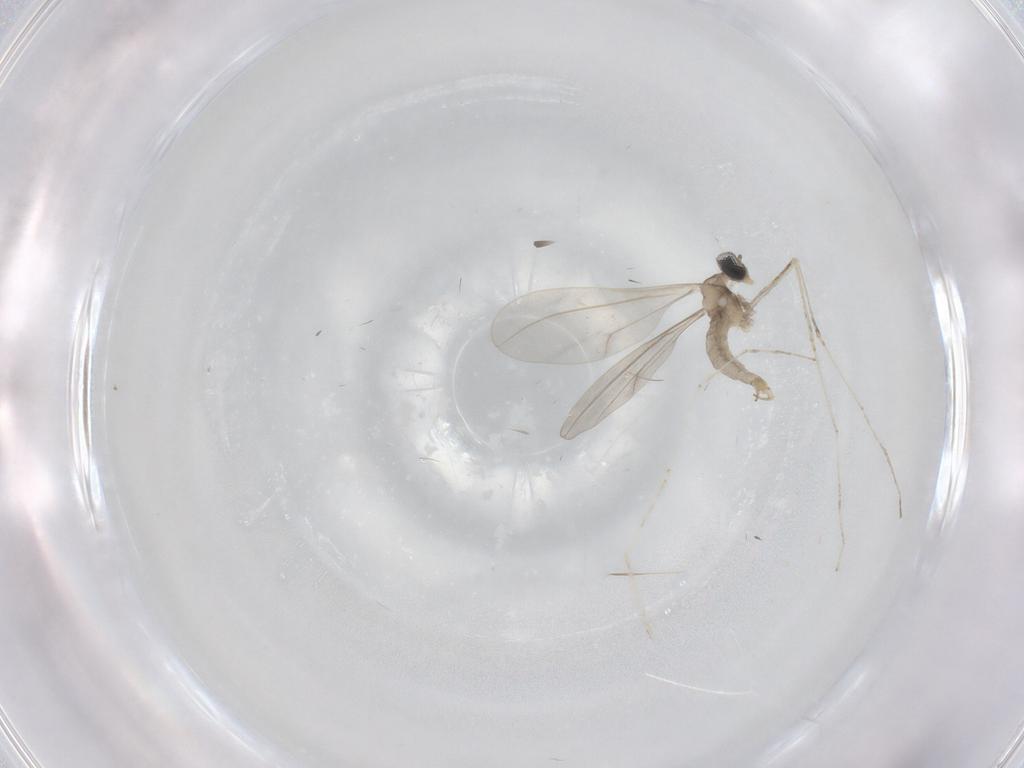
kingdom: Animalia
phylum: Arthropoda
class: Insecta
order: Diptera
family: Cecidomyiidae
